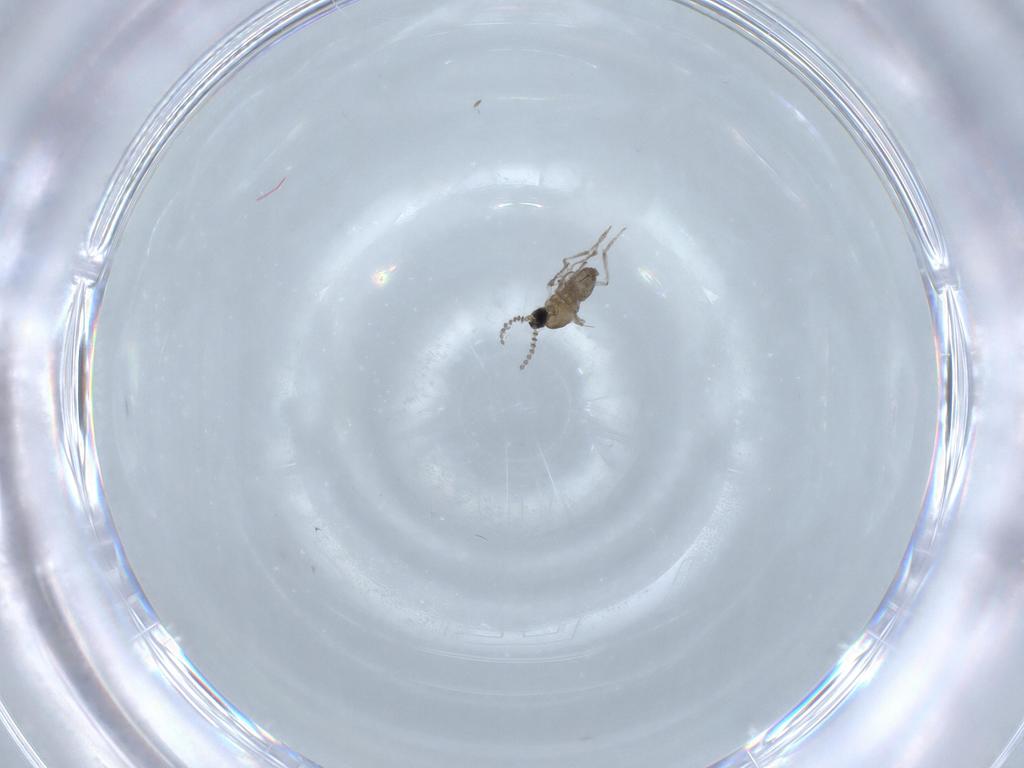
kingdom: Animalia
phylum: Arthropoda
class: Insecta
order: Diptera
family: Cecidomyiidae
